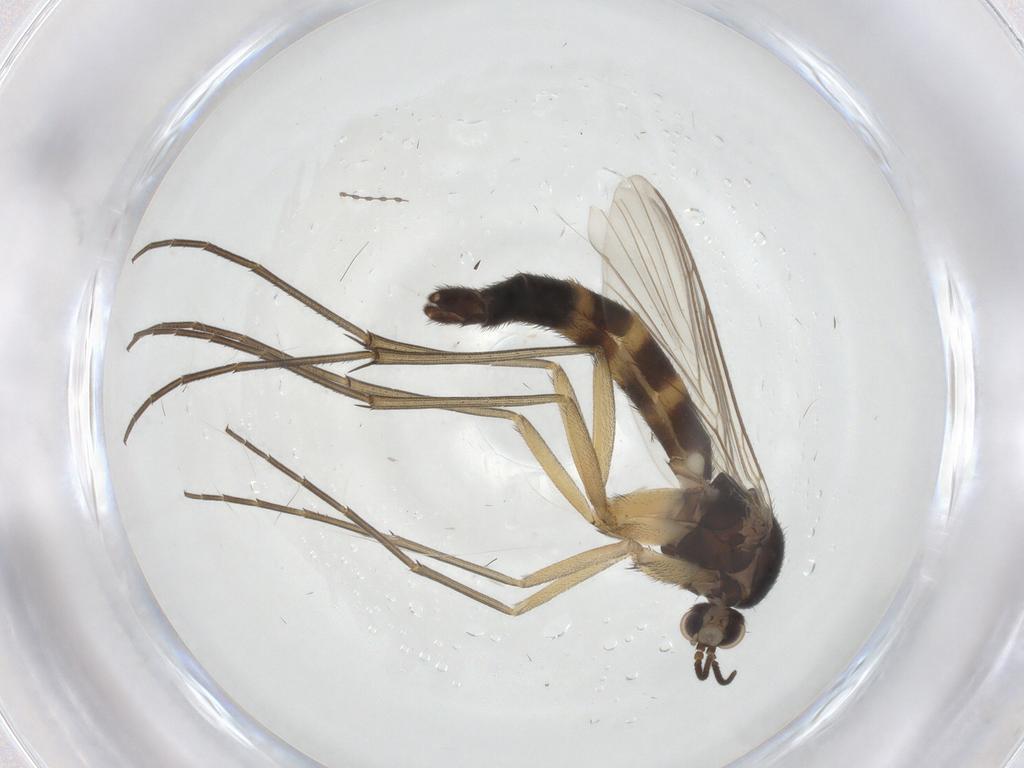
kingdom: Animalia
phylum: Arthropoda
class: Insecta
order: Diptera
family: Keroplatidae
